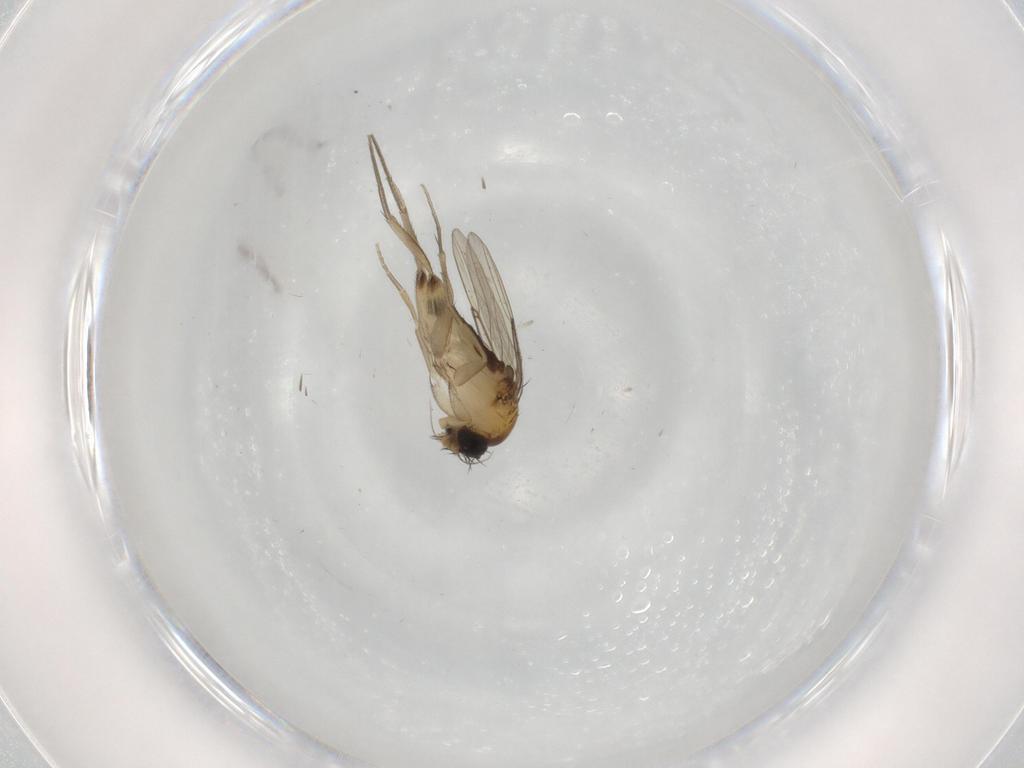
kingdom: Animalia
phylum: Arthropoda
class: Insecta
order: Diptera
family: Phoridae
